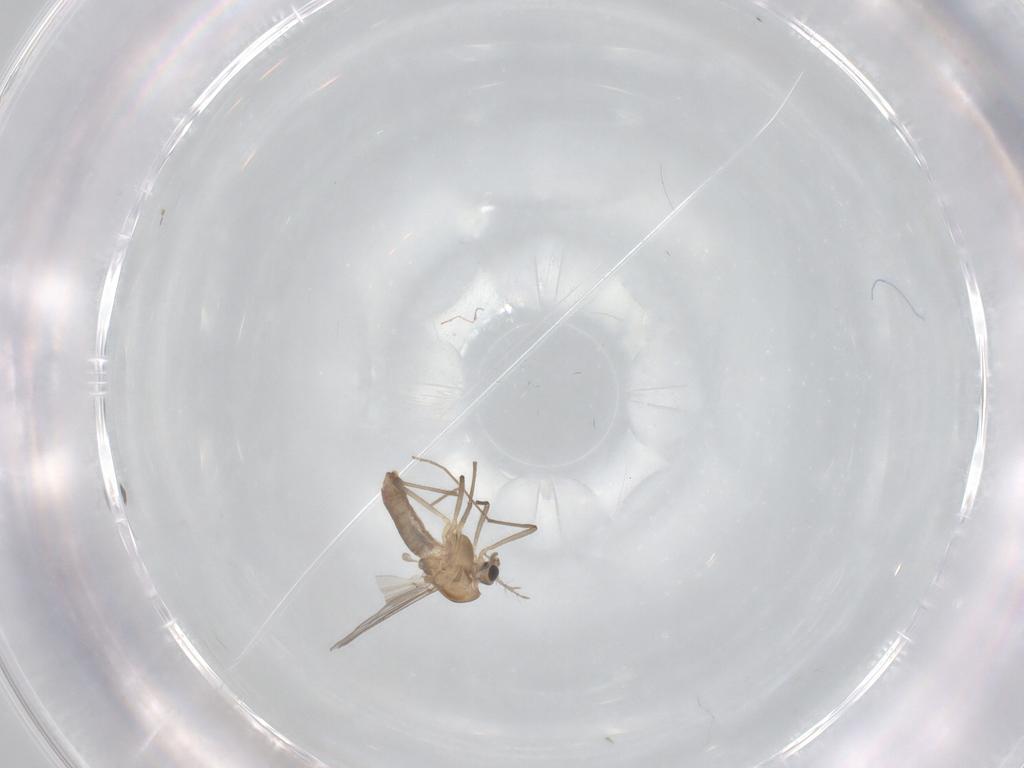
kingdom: Animalia
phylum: Arthropoda
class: Insecta
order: Diptera
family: Chironomidae
